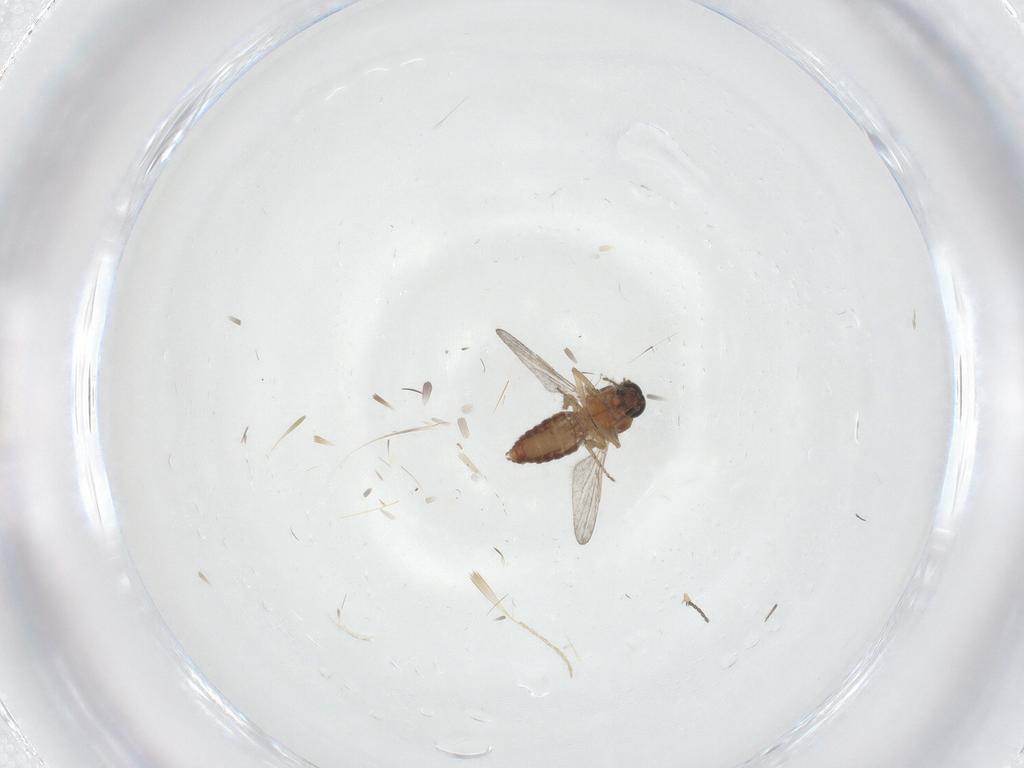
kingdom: Animalia
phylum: Arthropoda
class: Insecta
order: Diptera
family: Chironomidae
